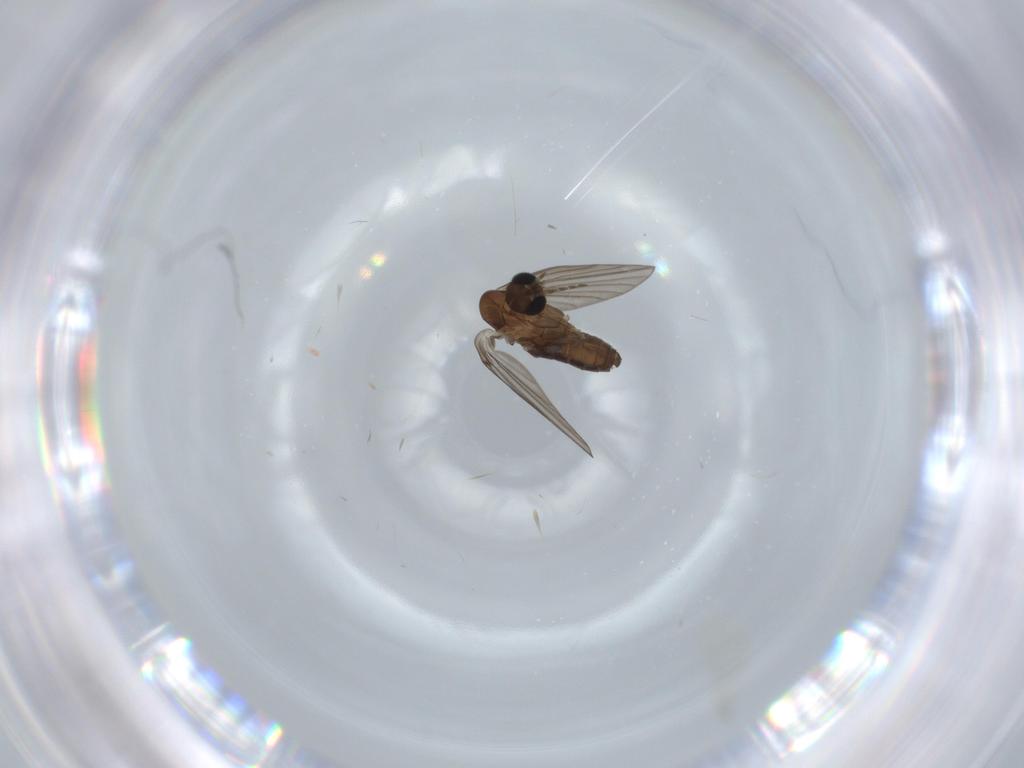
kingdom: Animalia
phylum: Arthropoda
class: Insecta
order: Diptera
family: Psychodidae
